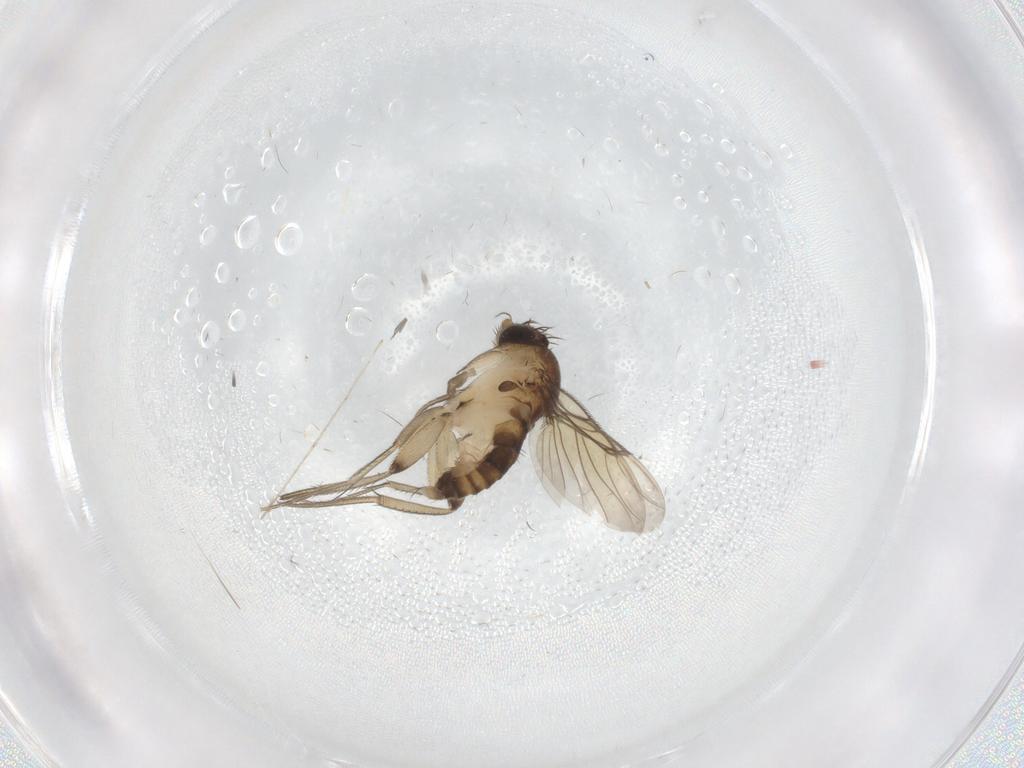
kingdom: Animalia
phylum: Arthropoda
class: Insecta
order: Diptera
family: Phoridae
